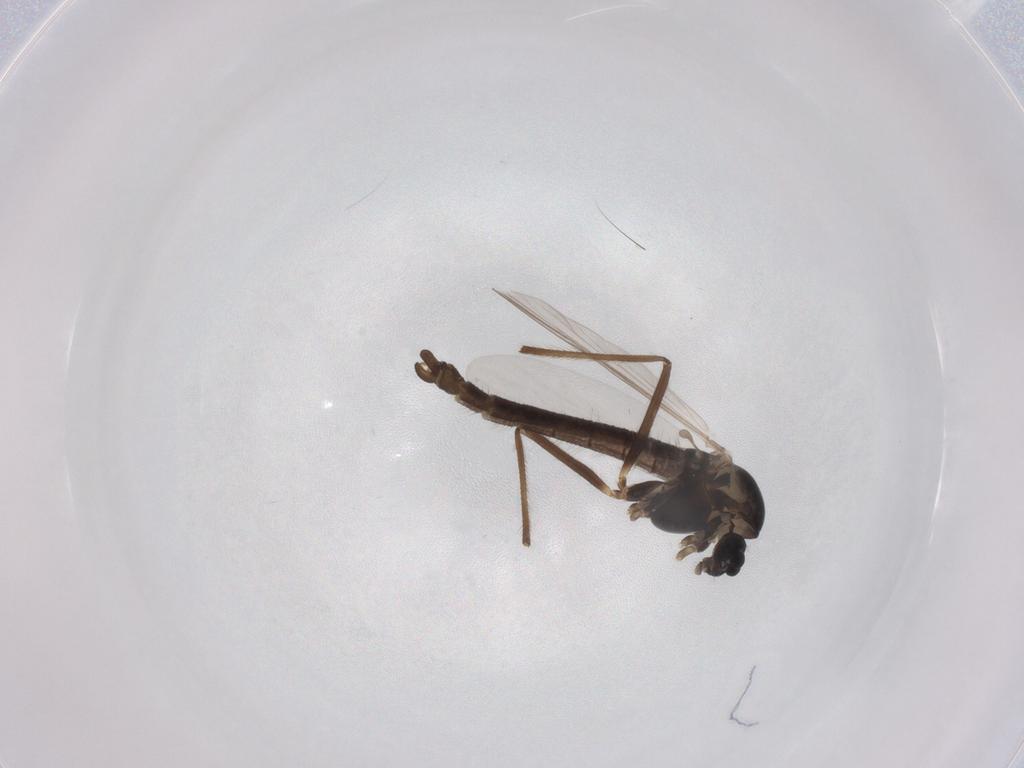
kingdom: Animalia
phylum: Arthropoda
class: Insecta
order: Diptera
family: Chironomidae
